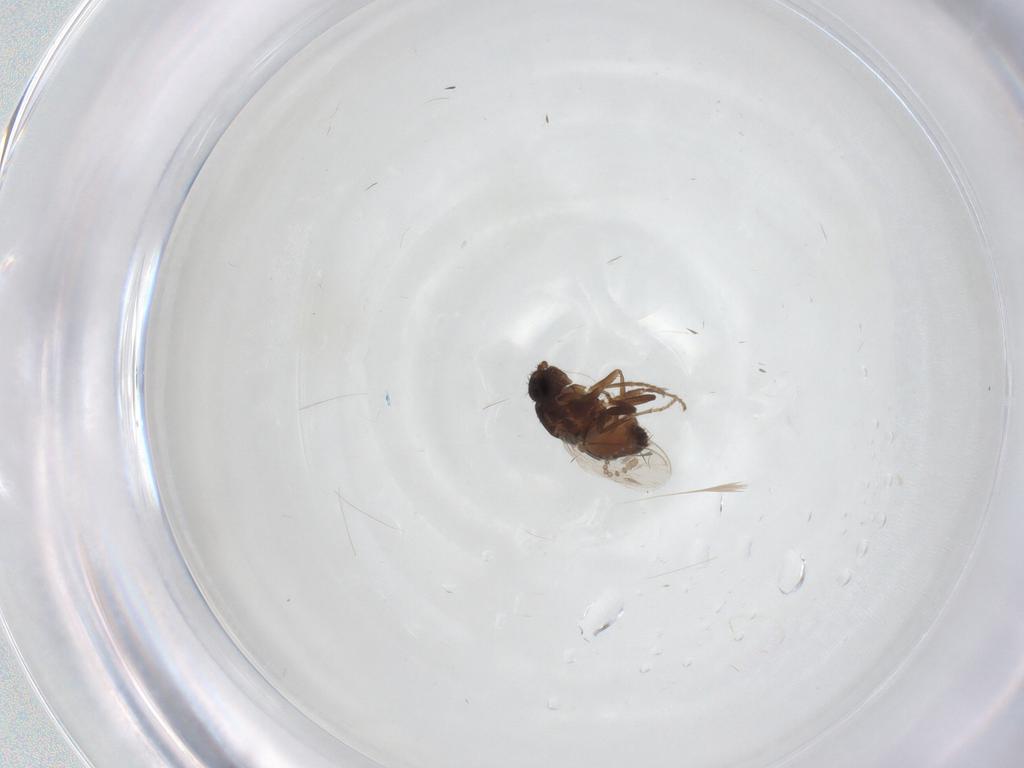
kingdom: Animalia
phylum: Arthropoda
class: Insecta
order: Diptera
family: Sphaeroceridae
